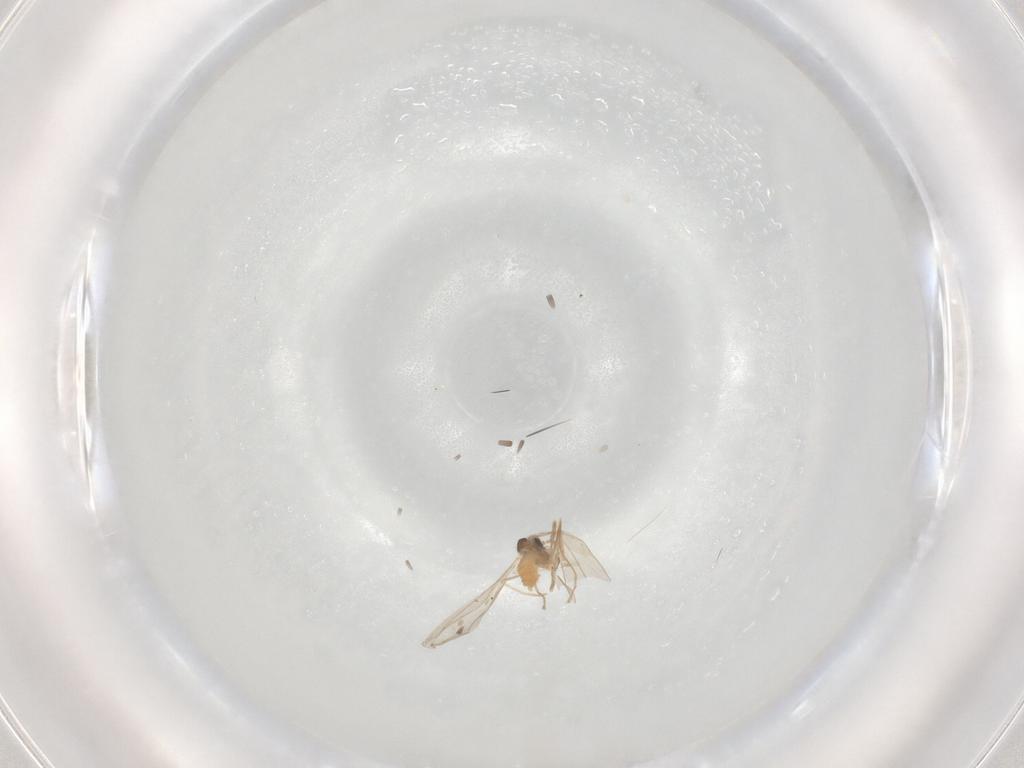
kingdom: Animalia
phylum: Arthropoda
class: Insecta
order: Diptera
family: Cecidomyiidae
